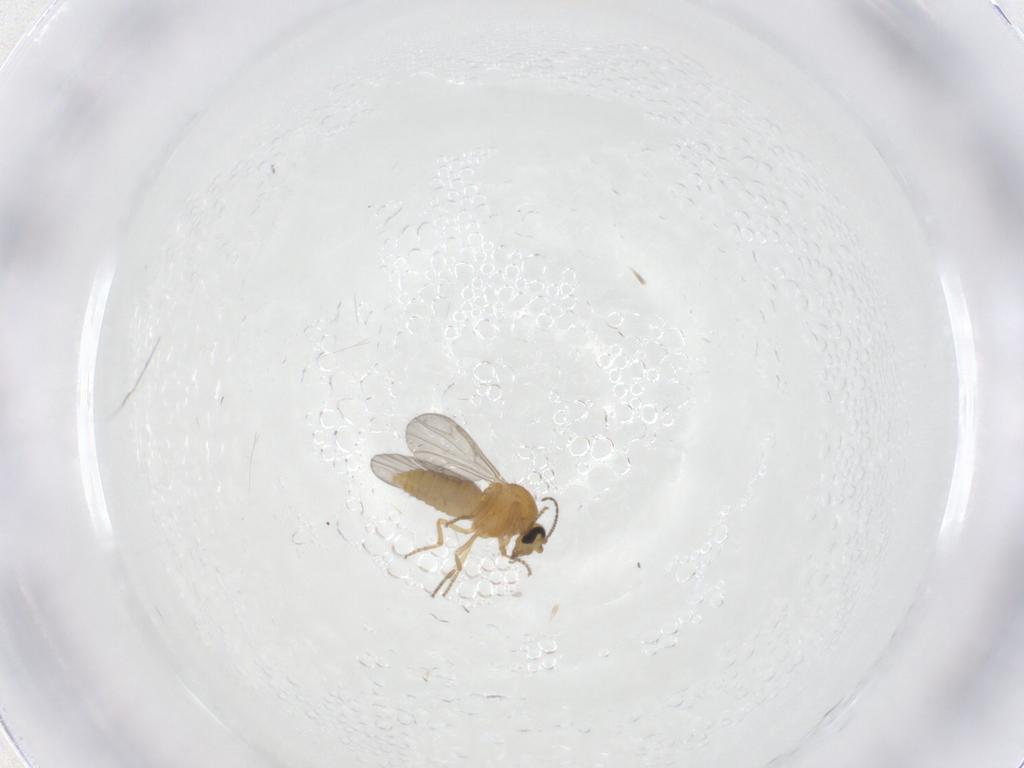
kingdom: Animalia
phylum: Arthropoda
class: Insecta
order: Diptera
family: Ceratopogonidae
